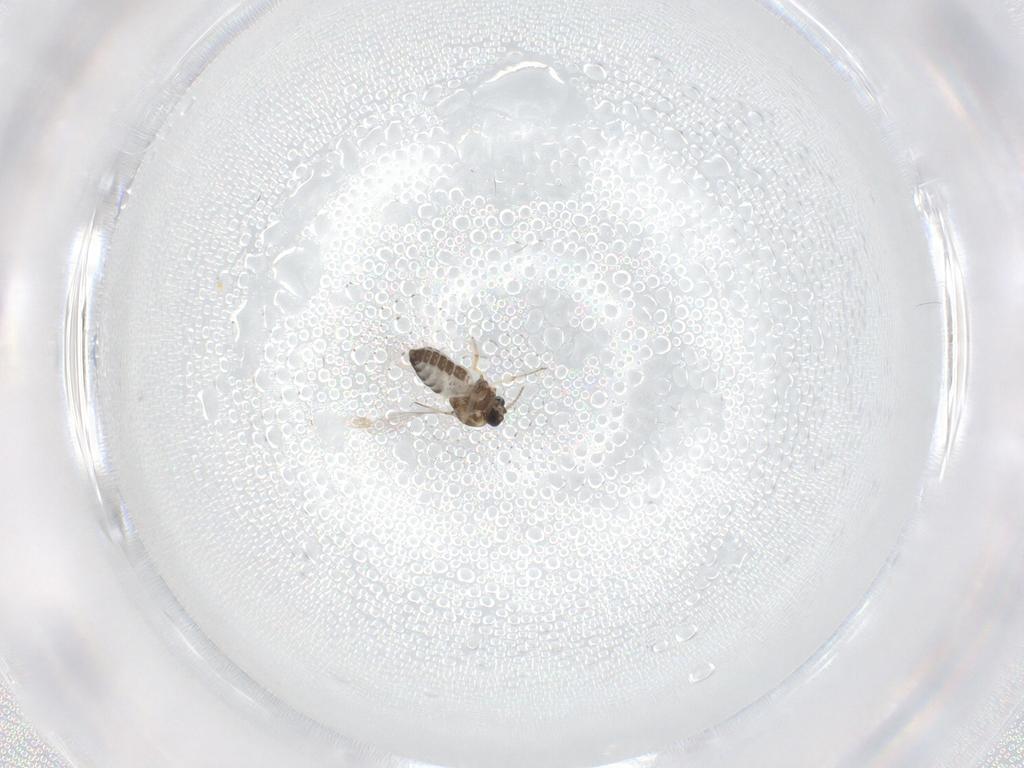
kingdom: Animalia
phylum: Arthropoda
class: Insecta
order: Diptera
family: Ceratopogonidae
